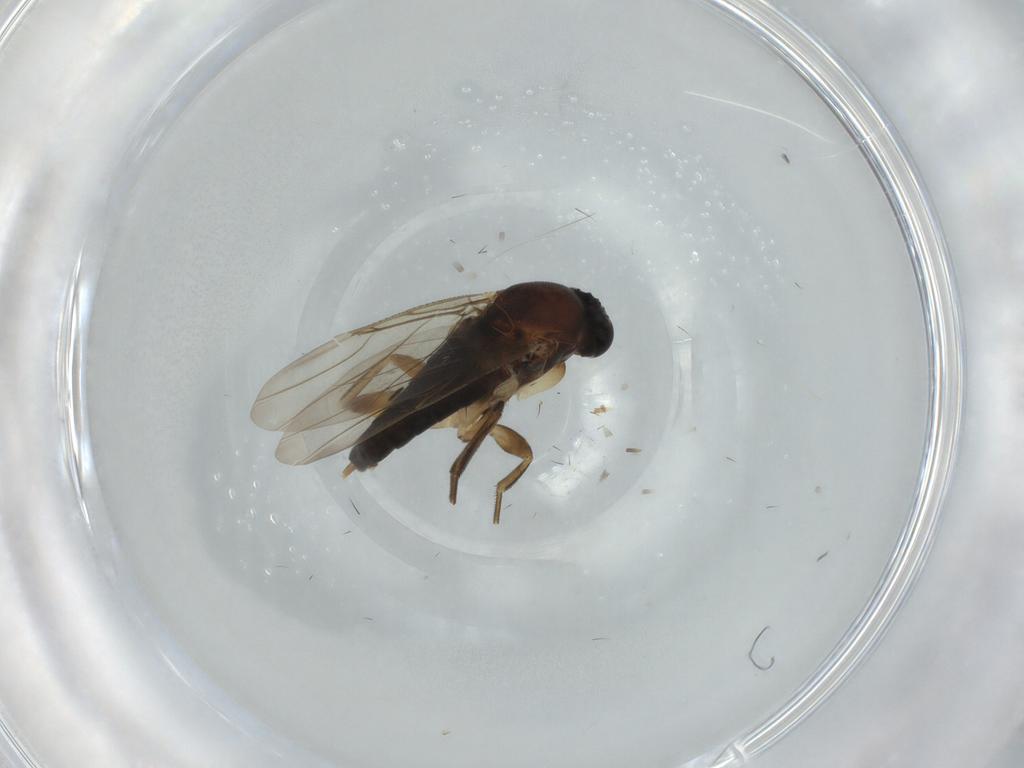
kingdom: Animalia
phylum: Arthropoda
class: Insecta
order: Diptera
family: Phoridae
